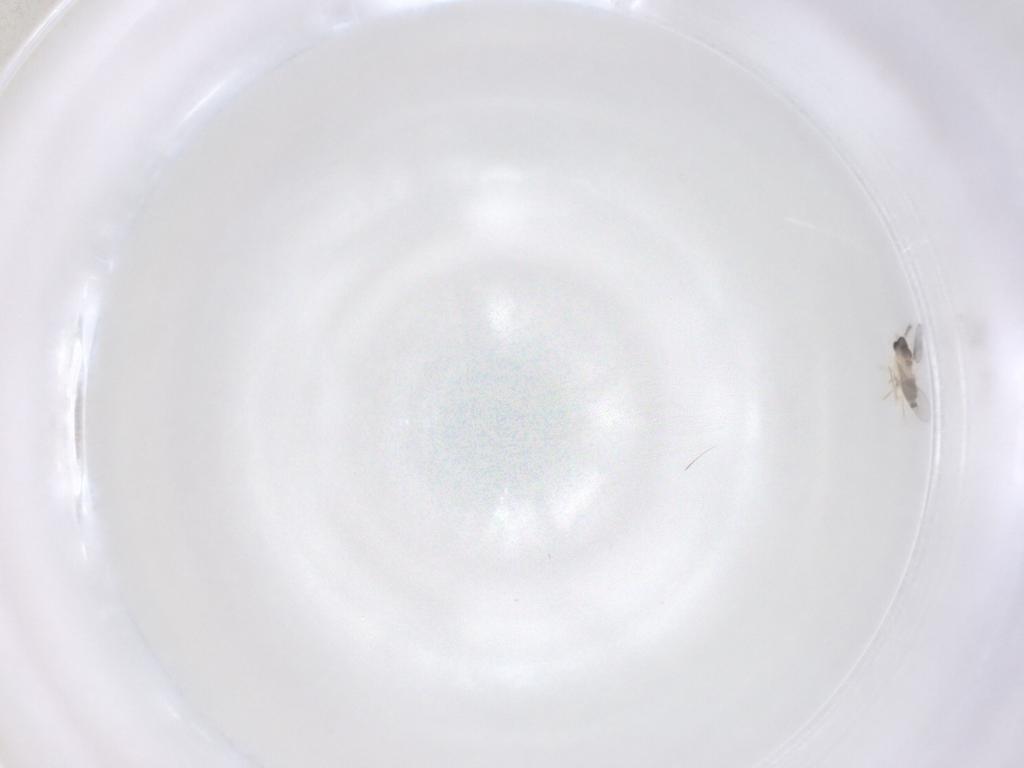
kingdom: Animalia
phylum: Arthropoda
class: Insecta
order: Diptera
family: Cecidomyiidae
